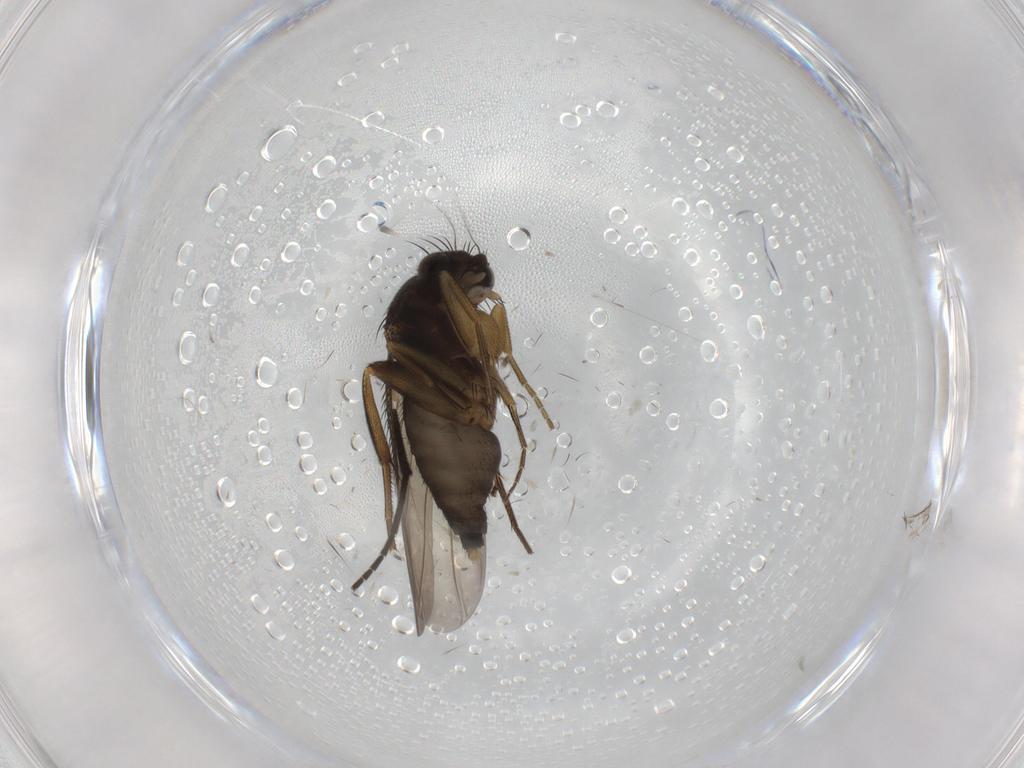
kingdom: Animalia
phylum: Arthropoda
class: Insecta
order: Diptera
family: Phoridae
